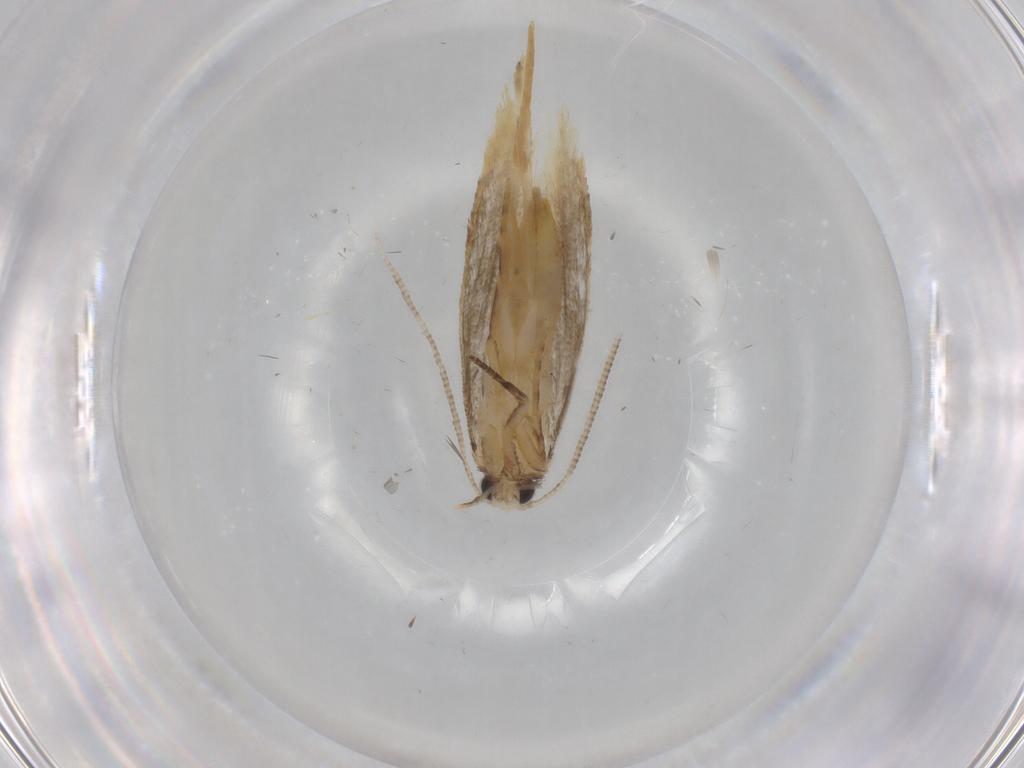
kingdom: Animalia
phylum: Arthropoda
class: Insecta
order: Lepidoptera
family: Tineidae
